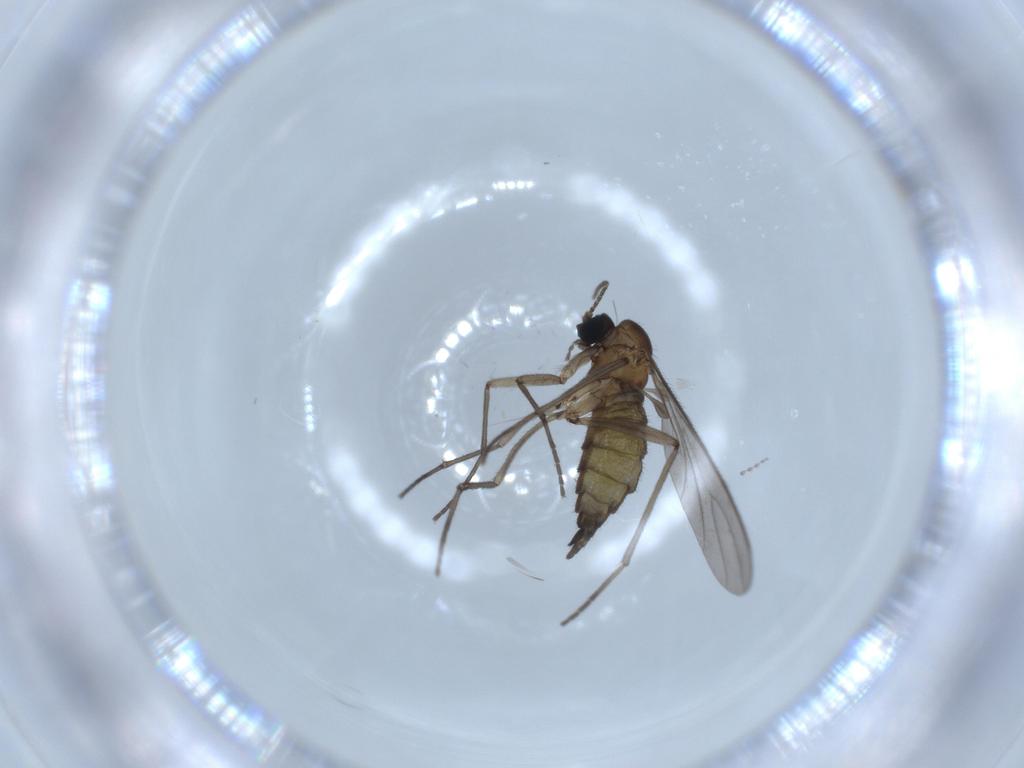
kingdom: Animalia
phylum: Arthropoda
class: Insecta
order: Diptera
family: Sciaridae
